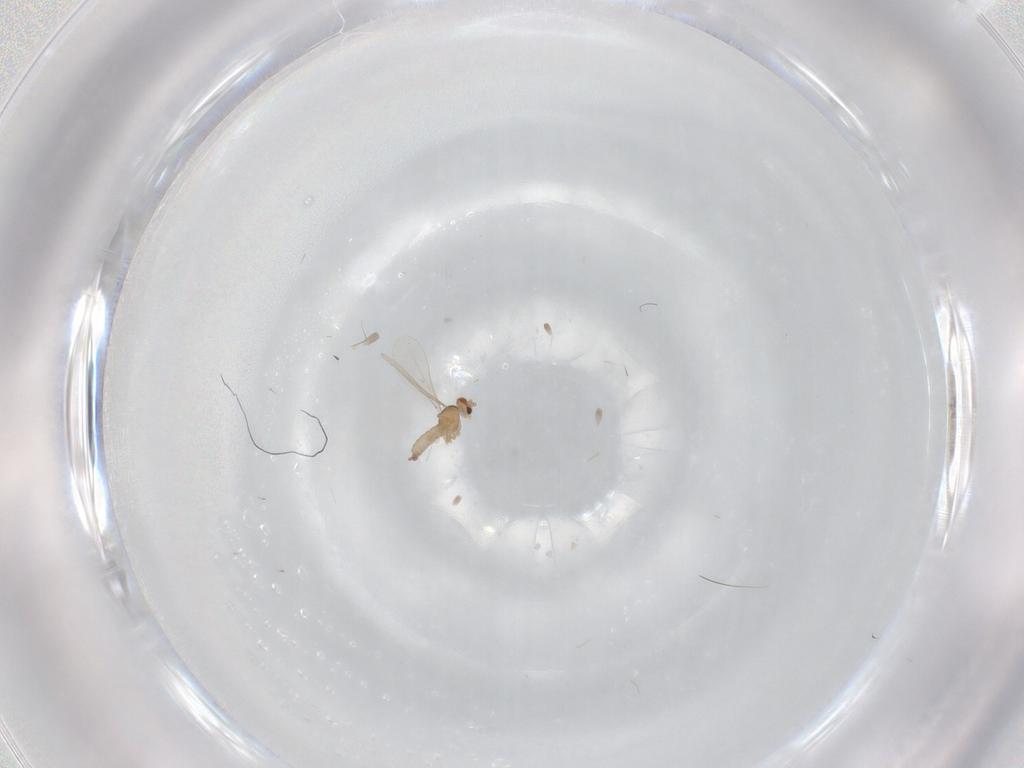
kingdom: Animalia
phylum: Arthropoda
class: Insecta
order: Diptera
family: Cecidomyiidae
